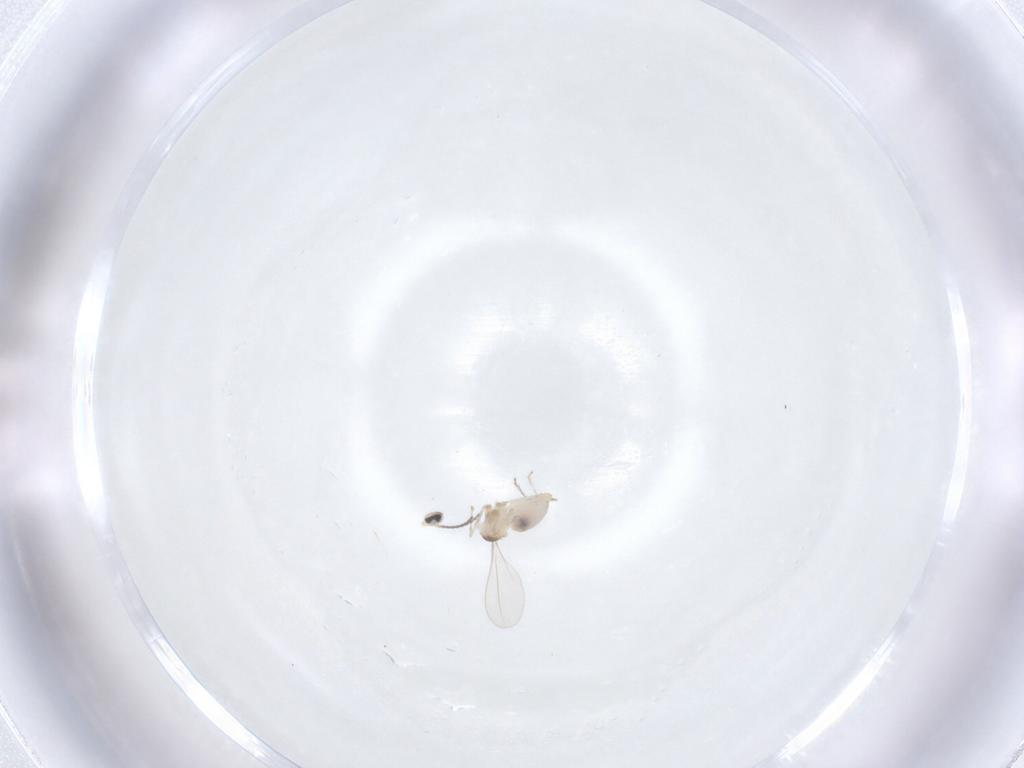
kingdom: Animalia
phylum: Arthropoda
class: Insecta
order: Diptera
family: Cecidomyiidae
